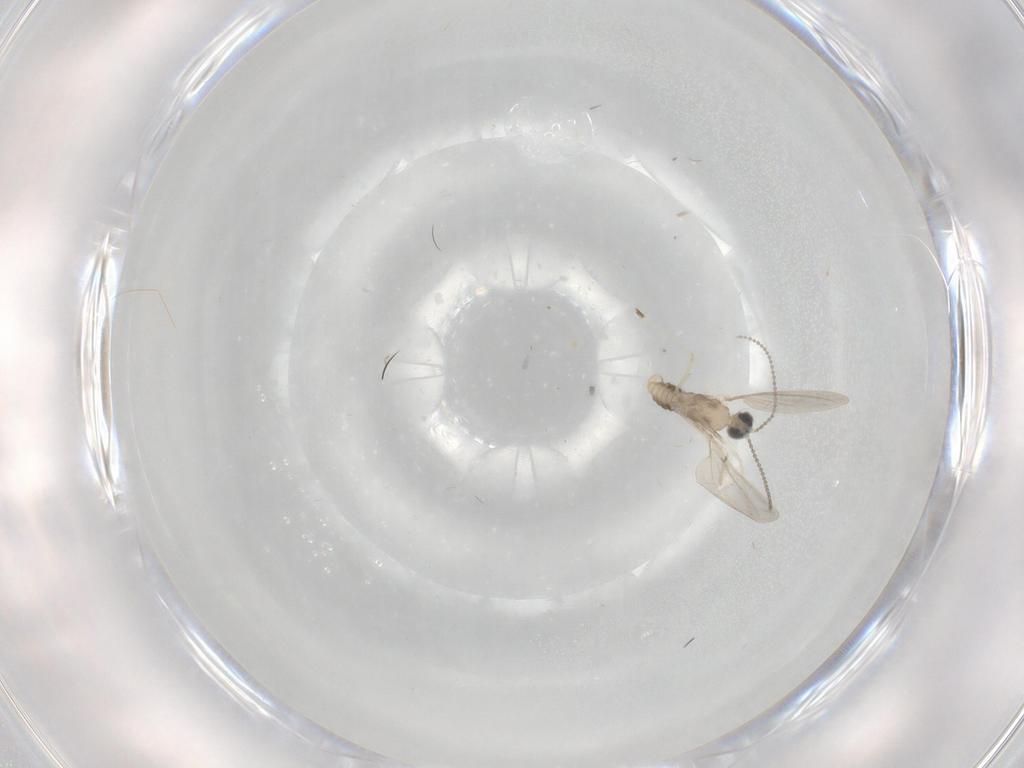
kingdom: Animalia
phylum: Arthropoda
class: Insecta
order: Diptera
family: Cecidomyiidae
